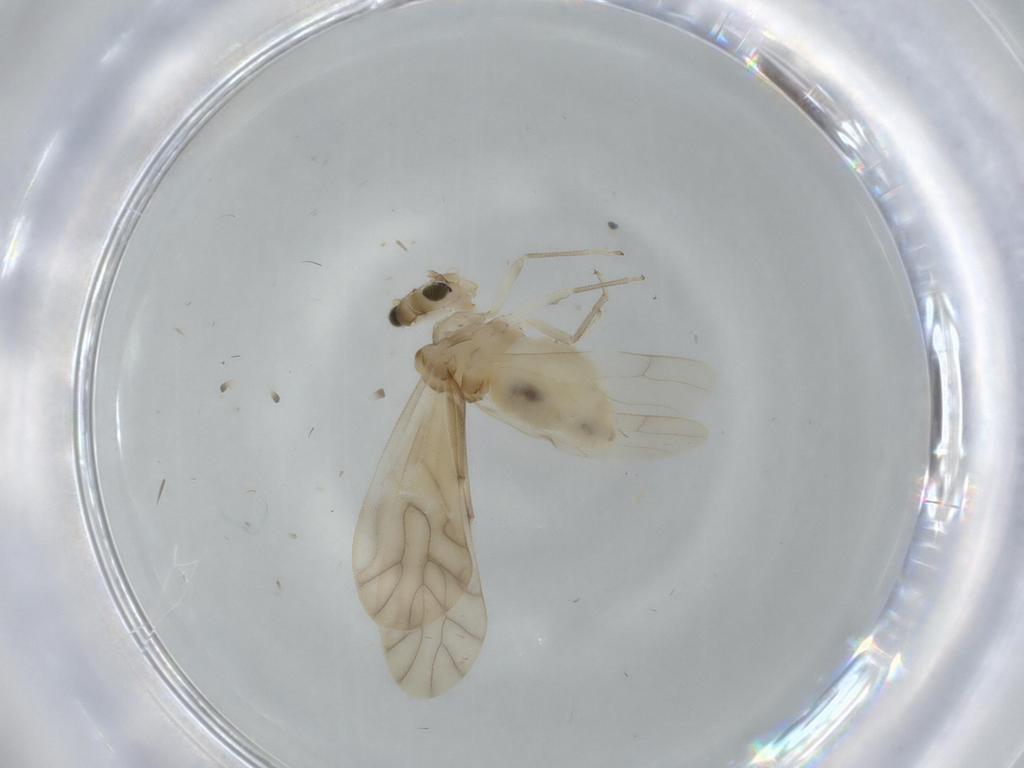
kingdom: Animalia
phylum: Arthropoda
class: Insecta
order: Psocodea
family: Caeciliusidae
